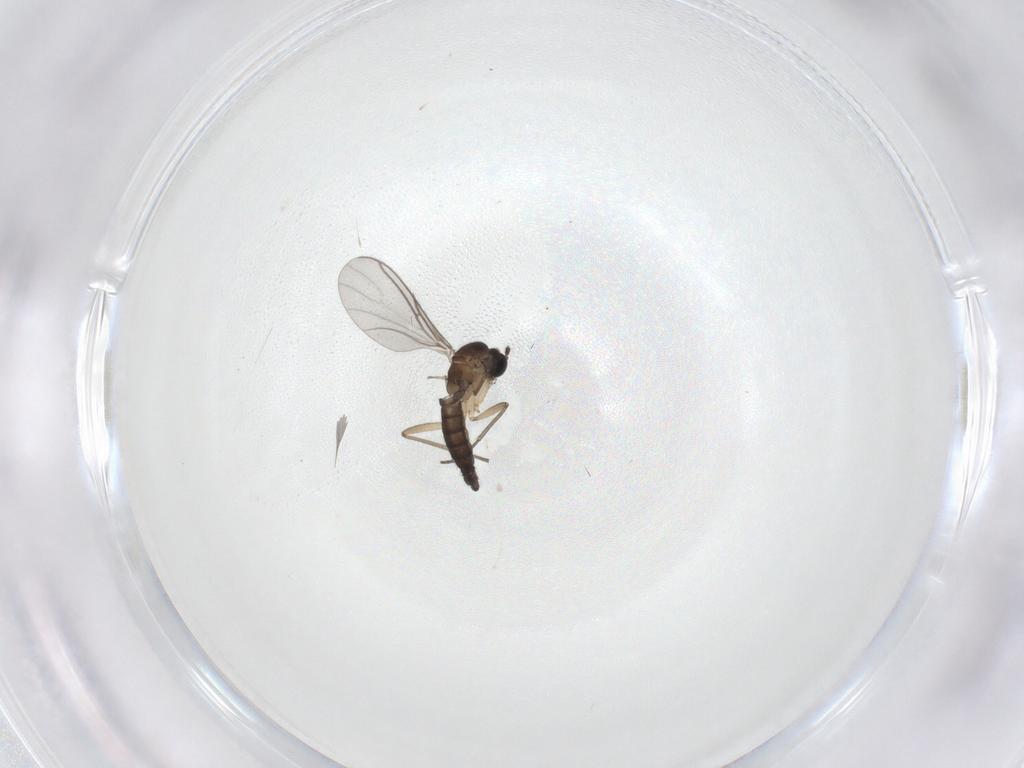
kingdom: Animalia
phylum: Arthropoda
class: Insecta
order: Diptera
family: Sciaridae
